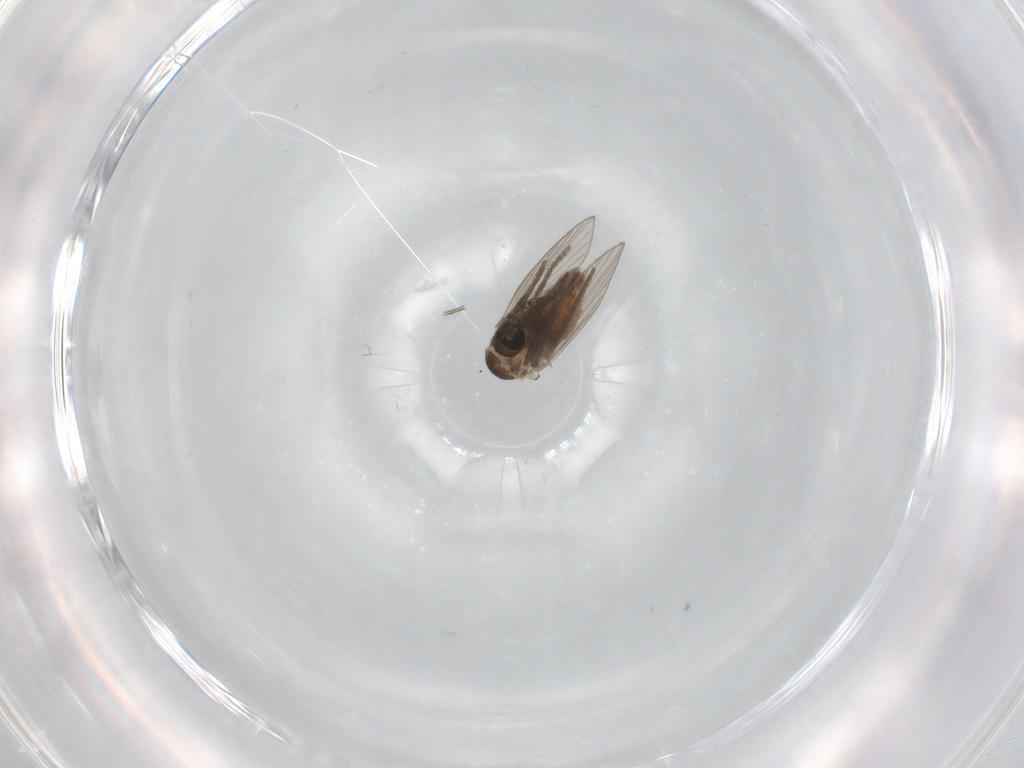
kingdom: Animalia
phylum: Arthropoda
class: Insecta
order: Diptera
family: Psychodidae
